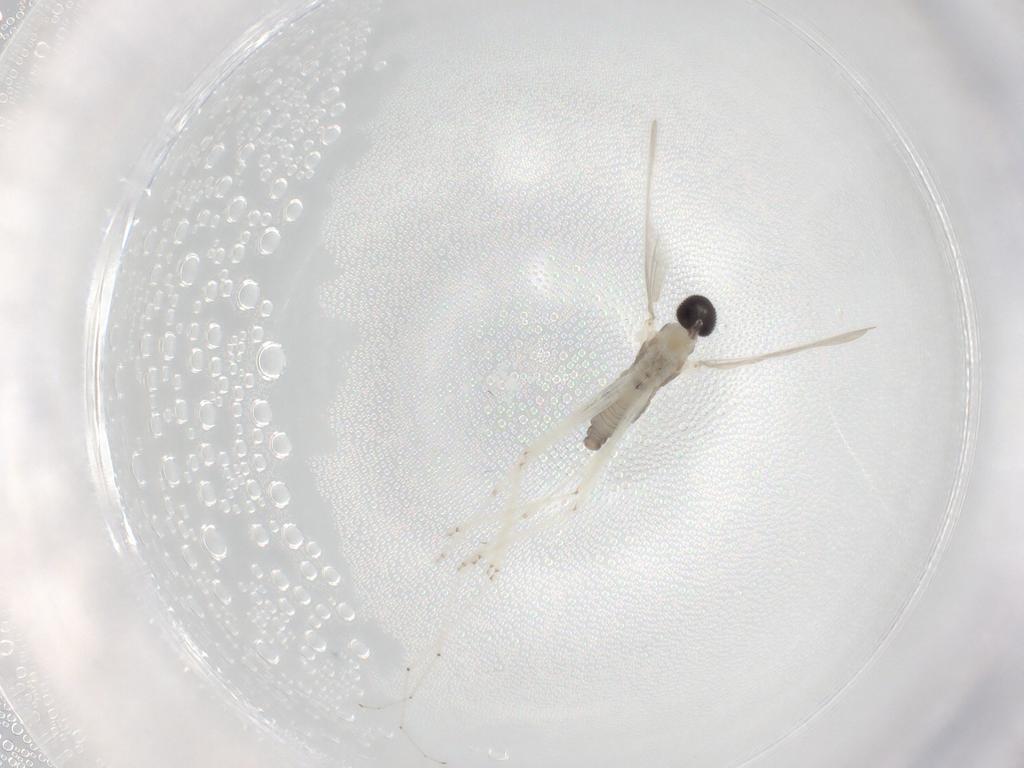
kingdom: Animalia
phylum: Arthropoda
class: Insecta
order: Diptera
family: Cecidomyiidae
